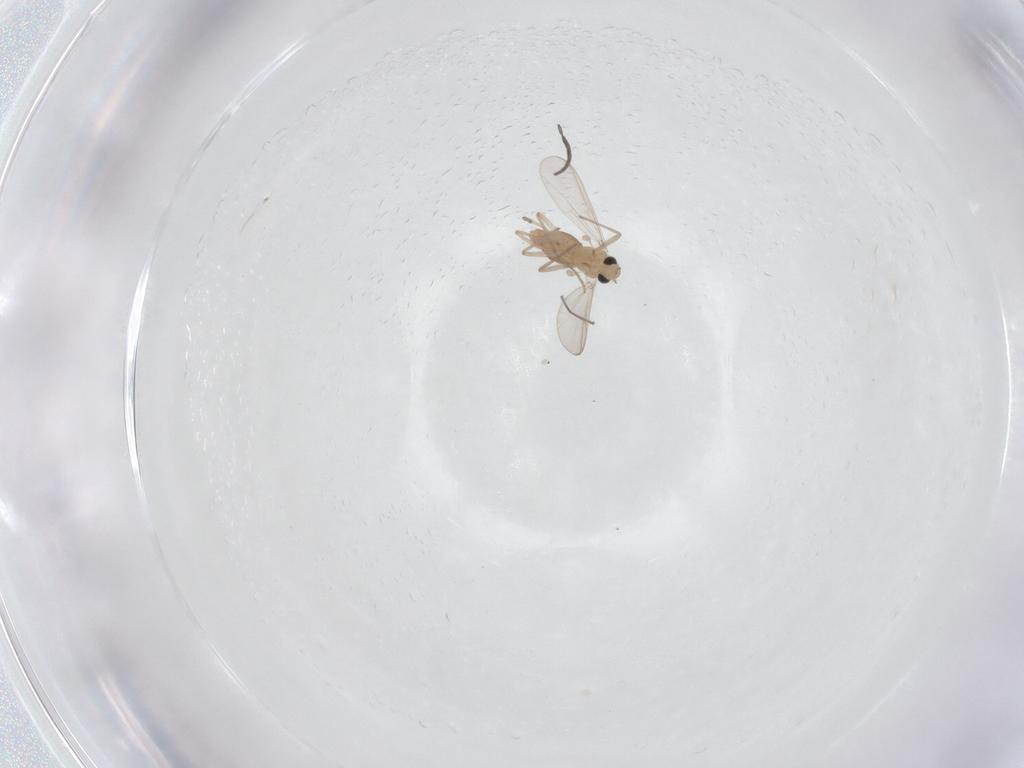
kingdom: Animalia
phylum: Arthropoda
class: Insecta
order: Diptera
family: Sciaridae
